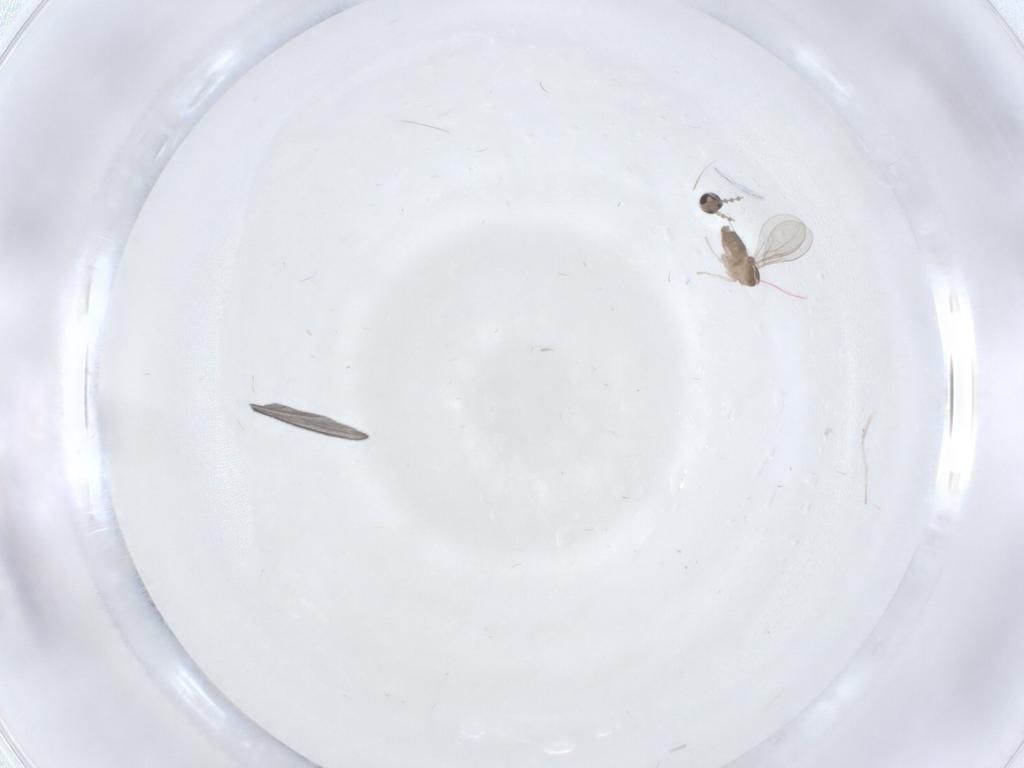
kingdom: Animalia
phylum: Arthropoda
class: Insecta
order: Diptera
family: Cecidomyiidae
